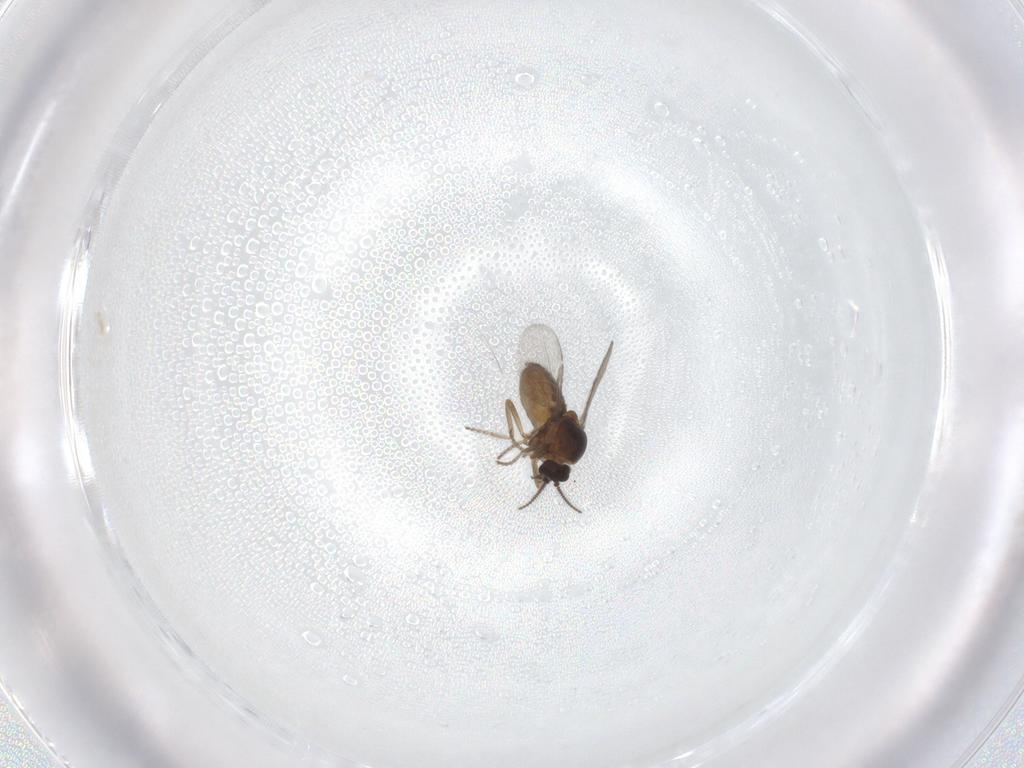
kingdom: Animalia
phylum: Arthropoda
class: Insecta
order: Diptera
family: Ceratopogonidae
